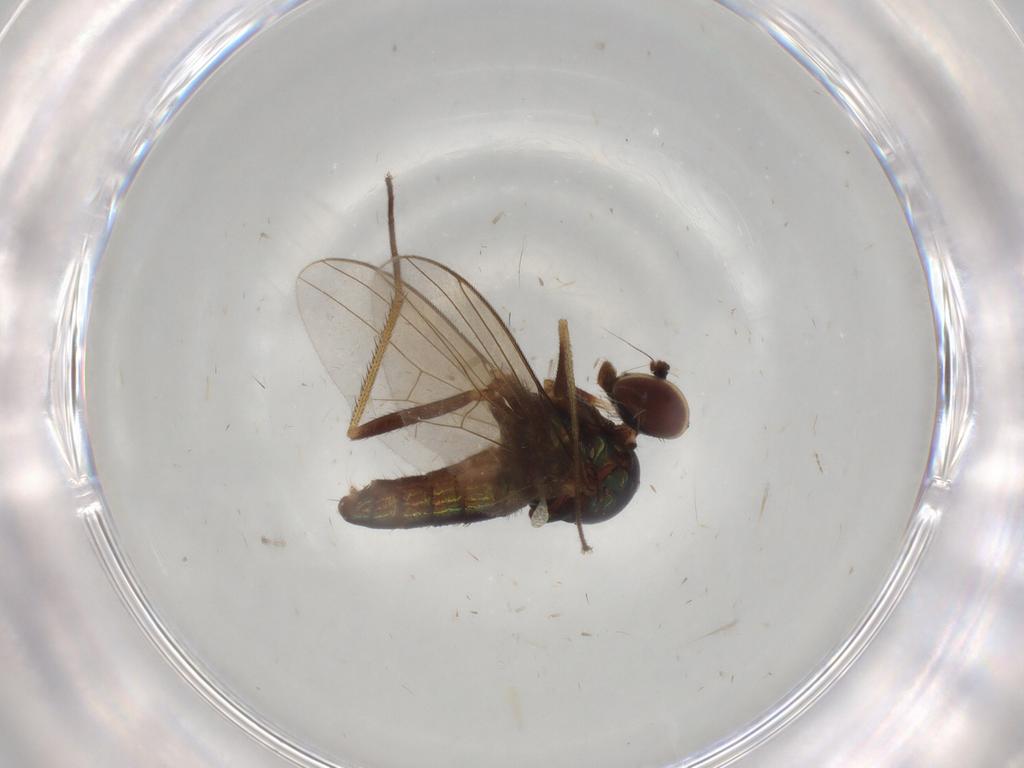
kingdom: Animalia
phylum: Arthropoda
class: Insecta
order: Diptera
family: Dolichopodidae
